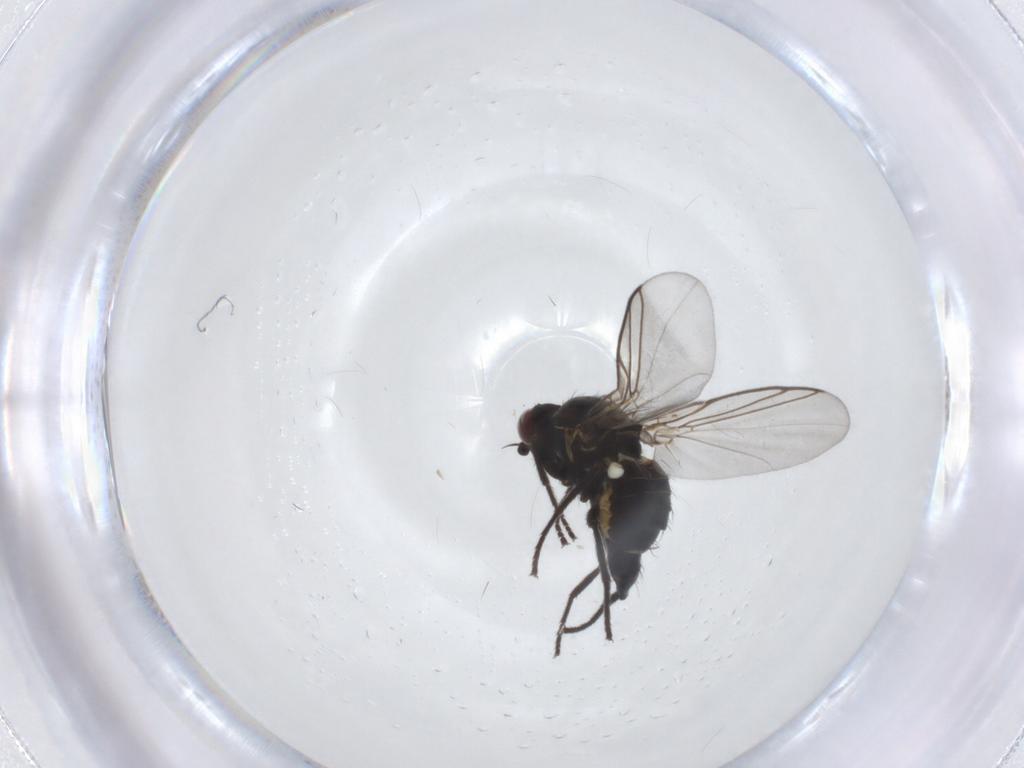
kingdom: Animalia
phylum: Arthropoda
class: Insecta
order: Diptera
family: Agromyzidae
